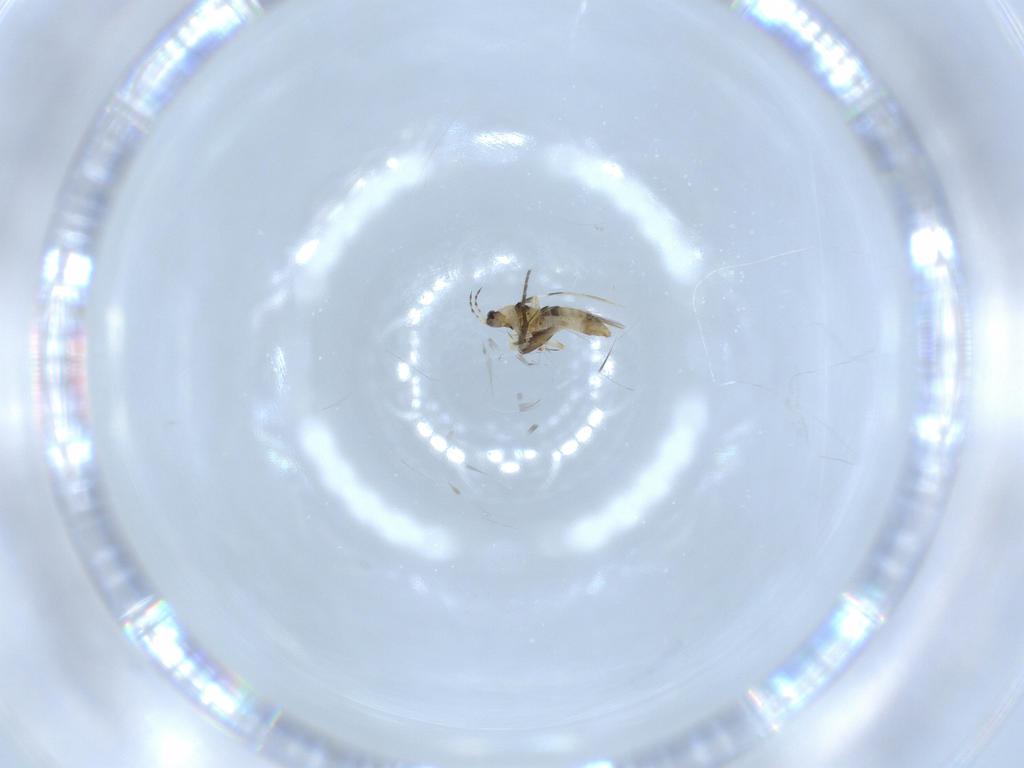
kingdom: Animalia
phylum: Arthropoda
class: Insecta
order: Thysanoptera
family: Thripidae
